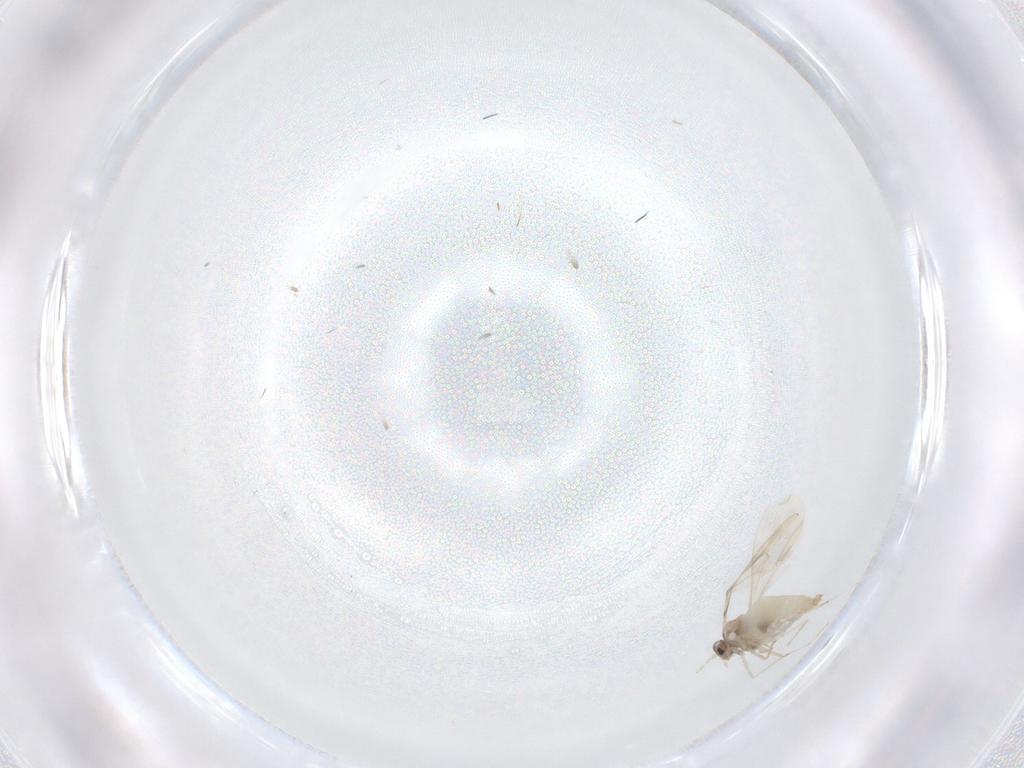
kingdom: Animalia
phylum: Arthropoda
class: Insecta
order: Diptera
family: Cecidomyiidae
